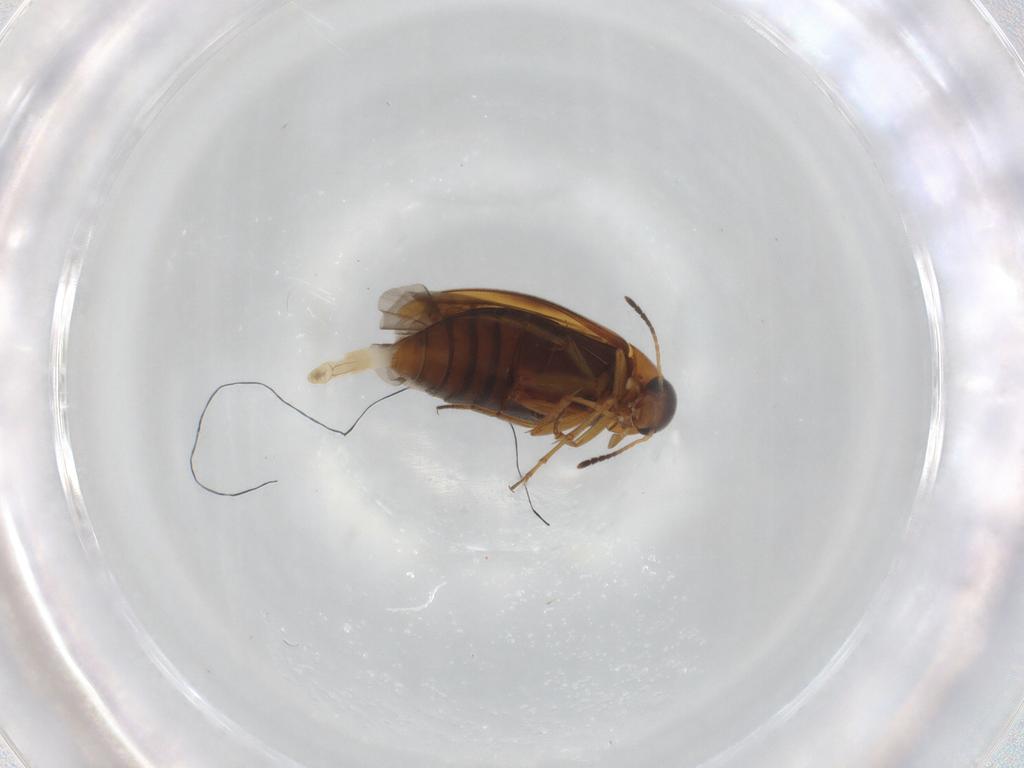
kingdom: Animalia
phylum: Arthropoda
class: Insecta
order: Coleoptera
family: Scraptiidae
